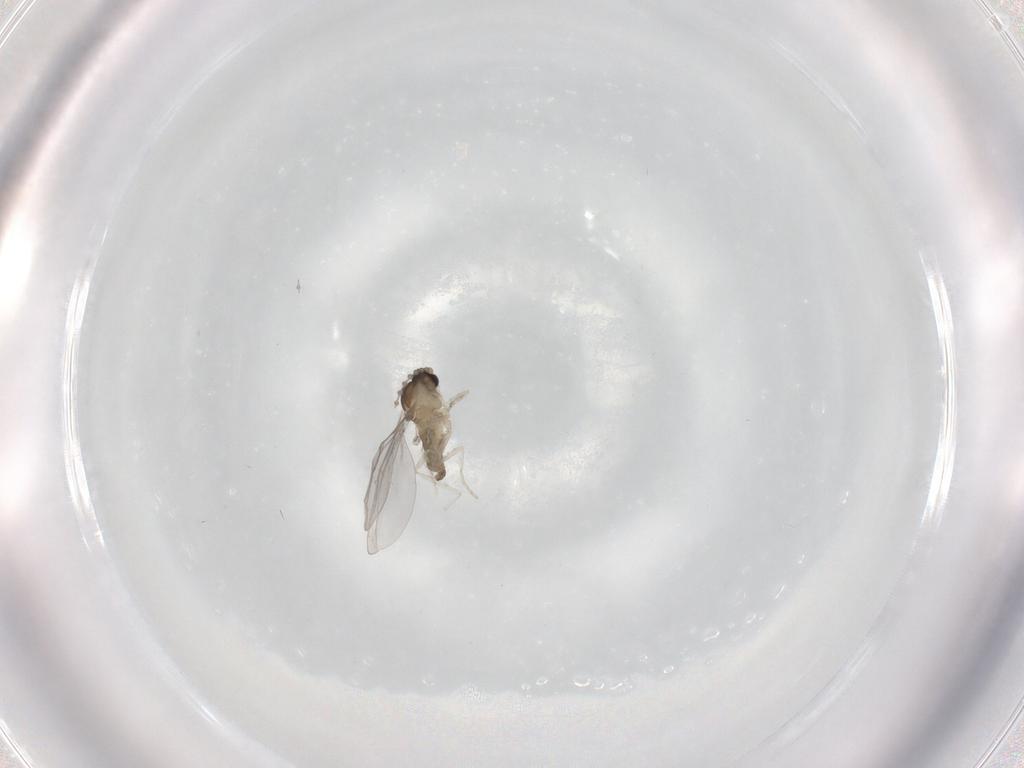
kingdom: Animalia
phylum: Arthropoda
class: Insecta
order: Diptera
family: Cecidomyiidae
